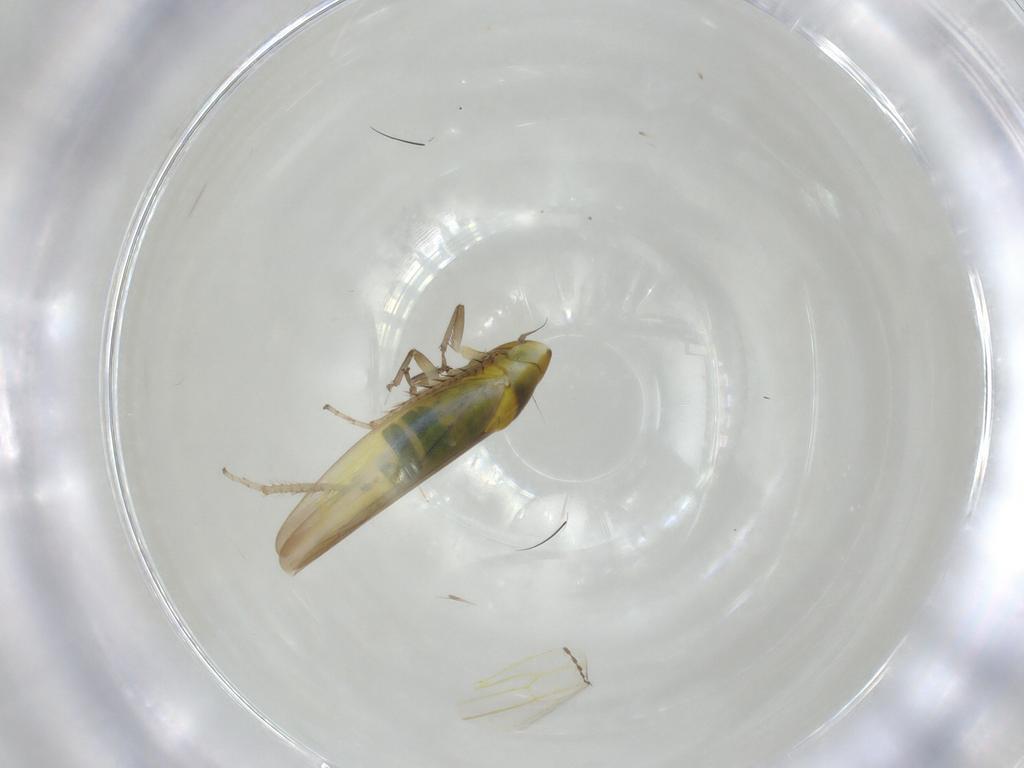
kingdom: Animalia
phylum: Arthropoda
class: Insecta
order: Hemiptera
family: Cicadellidae
